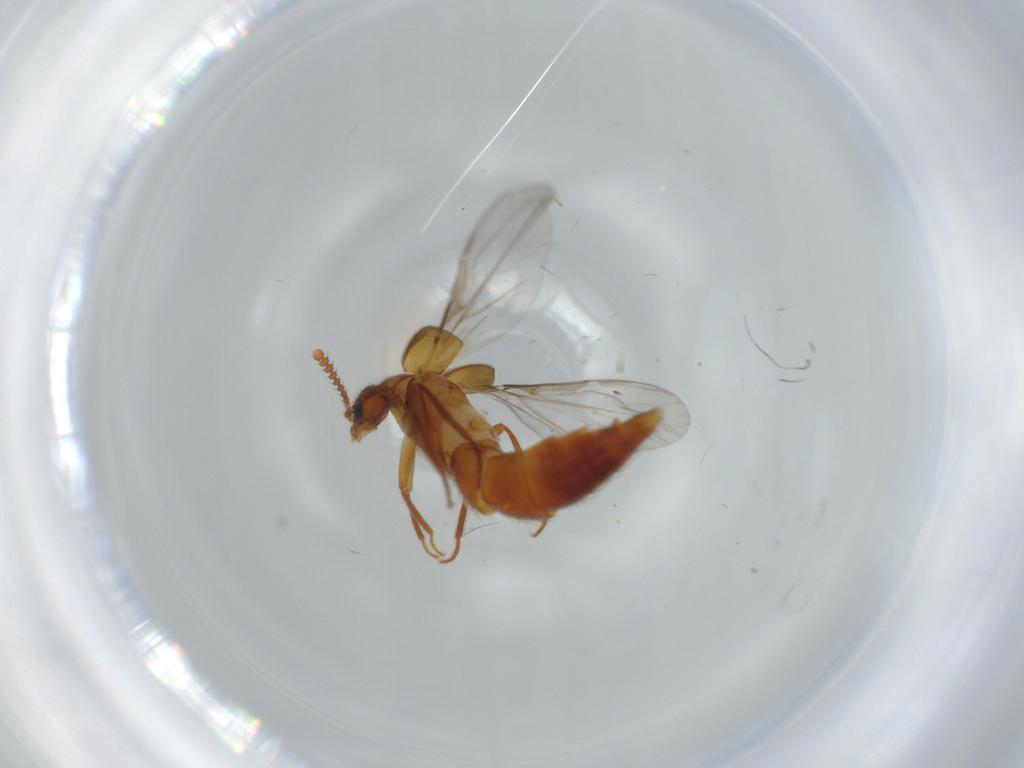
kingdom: Animalia
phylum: Arthropoda
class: Insecta
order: Coleoptera
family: Staphylinidae
